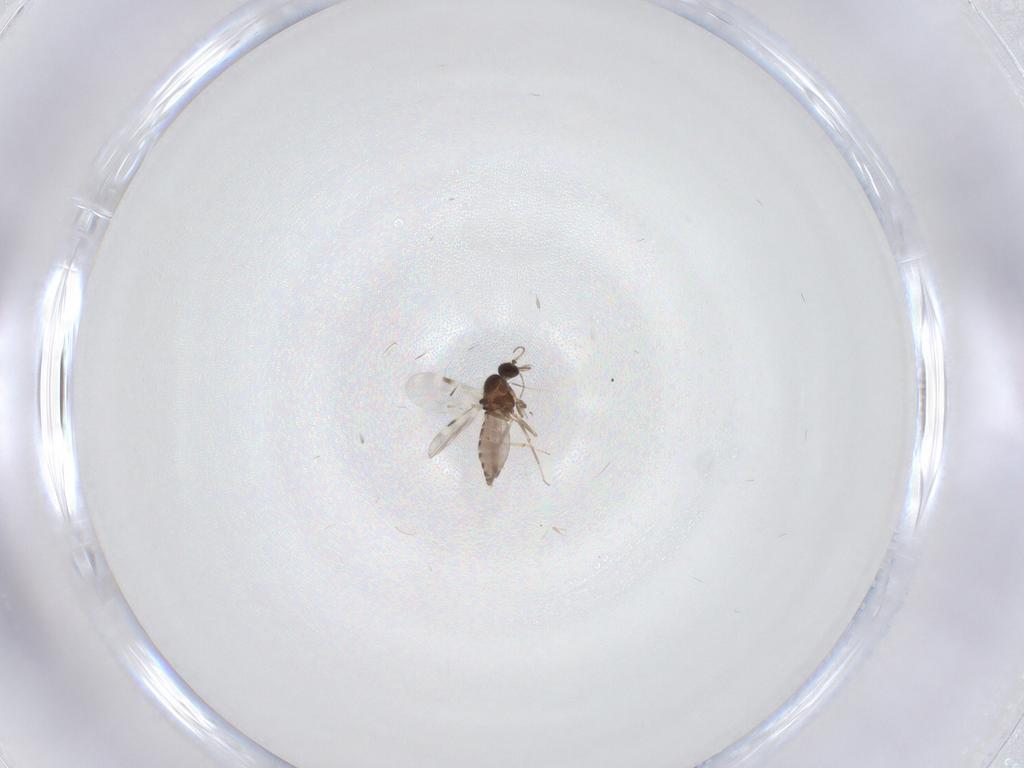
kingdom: Animalia
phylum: Arthropoda
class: Insecta
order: Diptera
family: Sphaeroceridae
